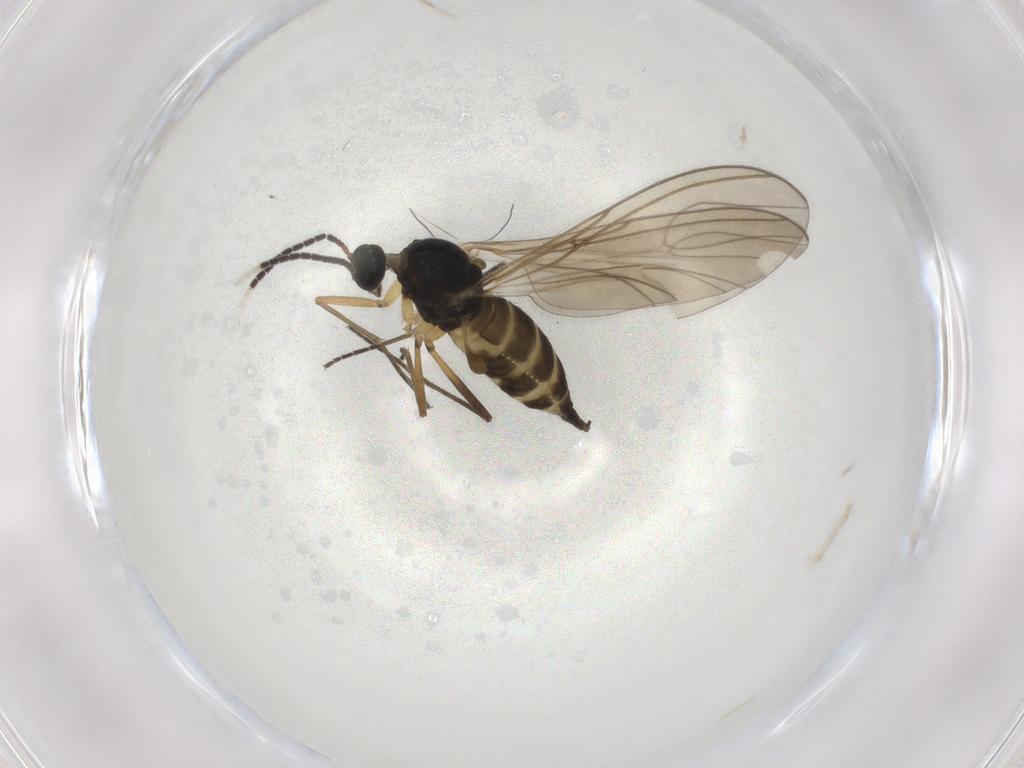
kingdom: Animalia
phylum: Arthropoda
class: Insecta
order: Diptera
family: Sciaridae
